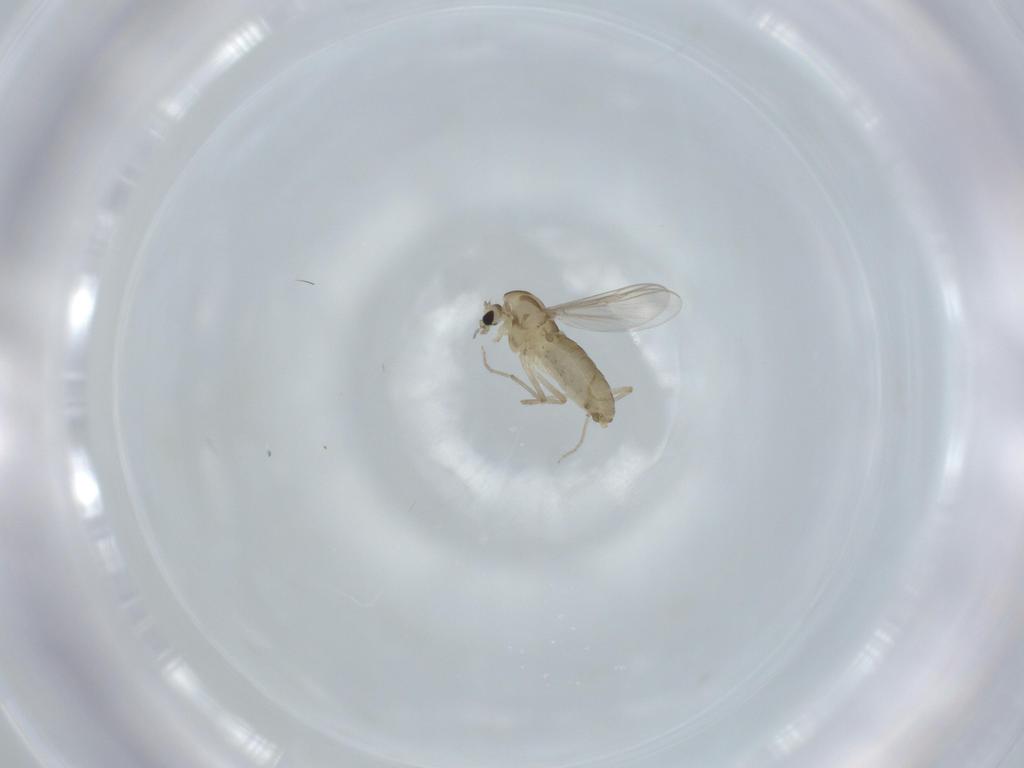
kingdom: Animalia
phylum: Arthropoda
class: Insecta
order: Diptera
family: Chironomidae
